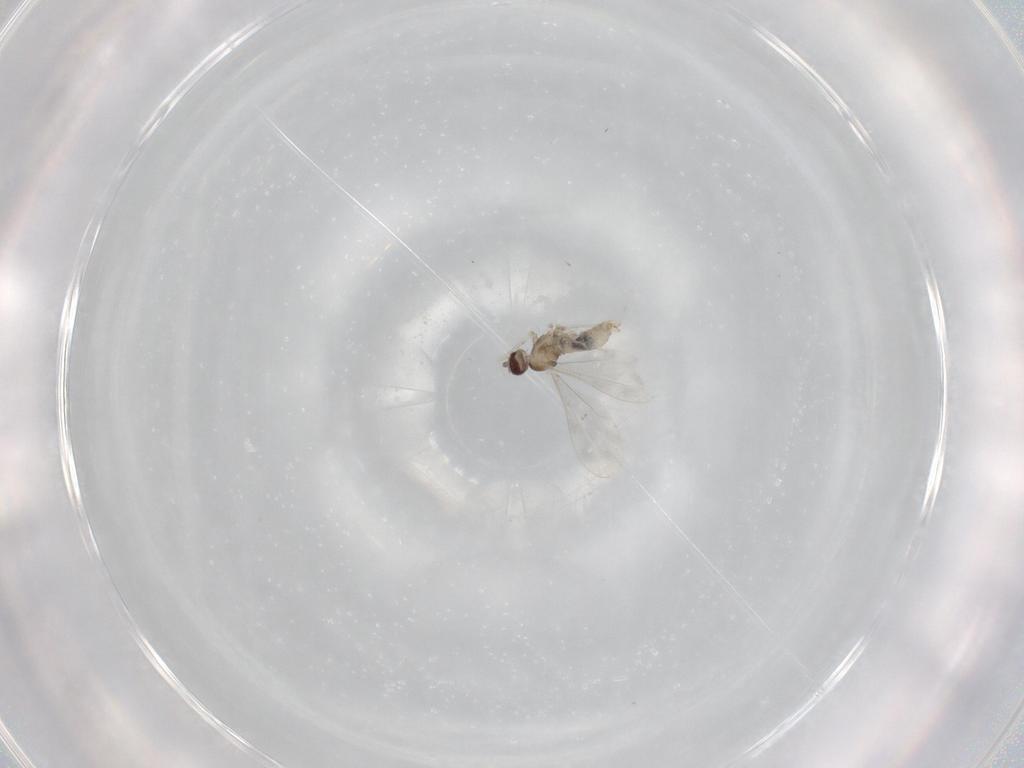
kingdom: Animalia
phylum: Arthropoda
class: Insecta
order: Diptera
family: Cecidomyiidae
